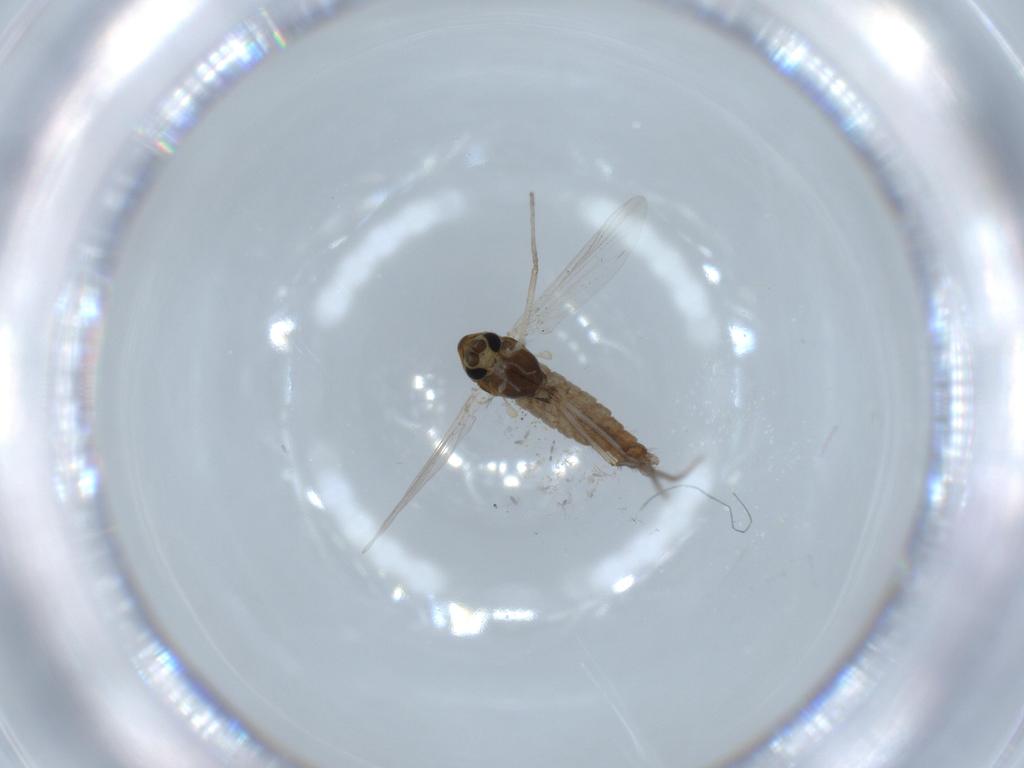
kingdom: Animalia
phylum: Arthropoda
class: Insecta
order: Diptera
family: Chironomidae
